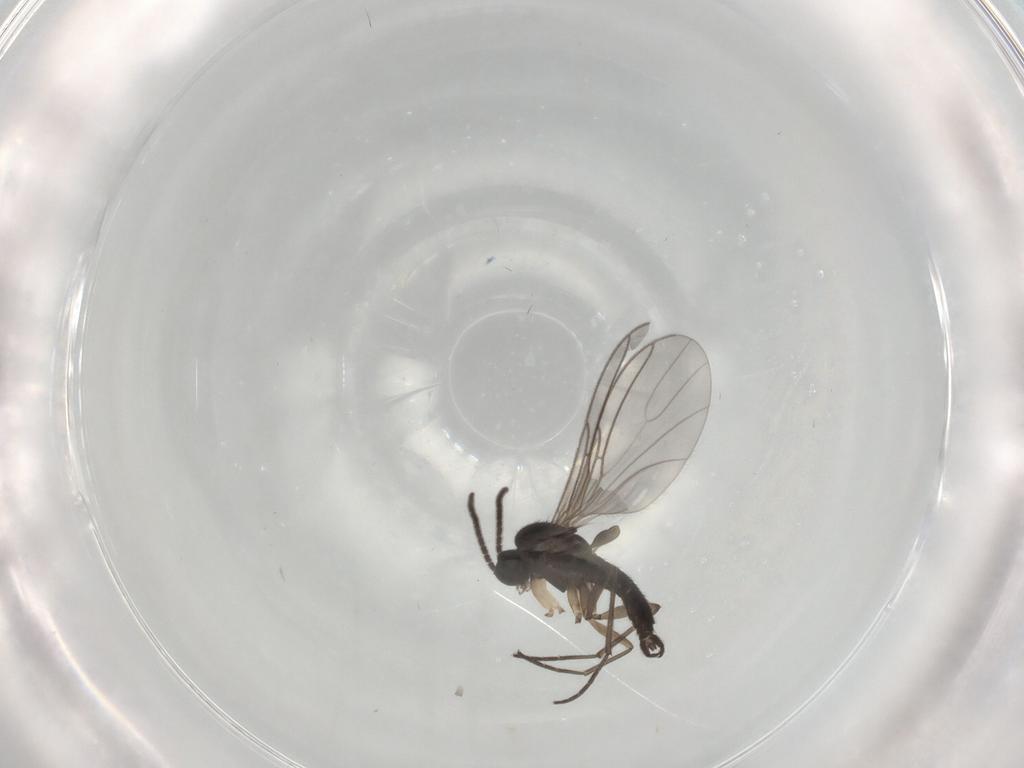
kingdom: Animalia
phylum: Arthropoda
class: Insecta
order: Diptera
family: Sciaridae
